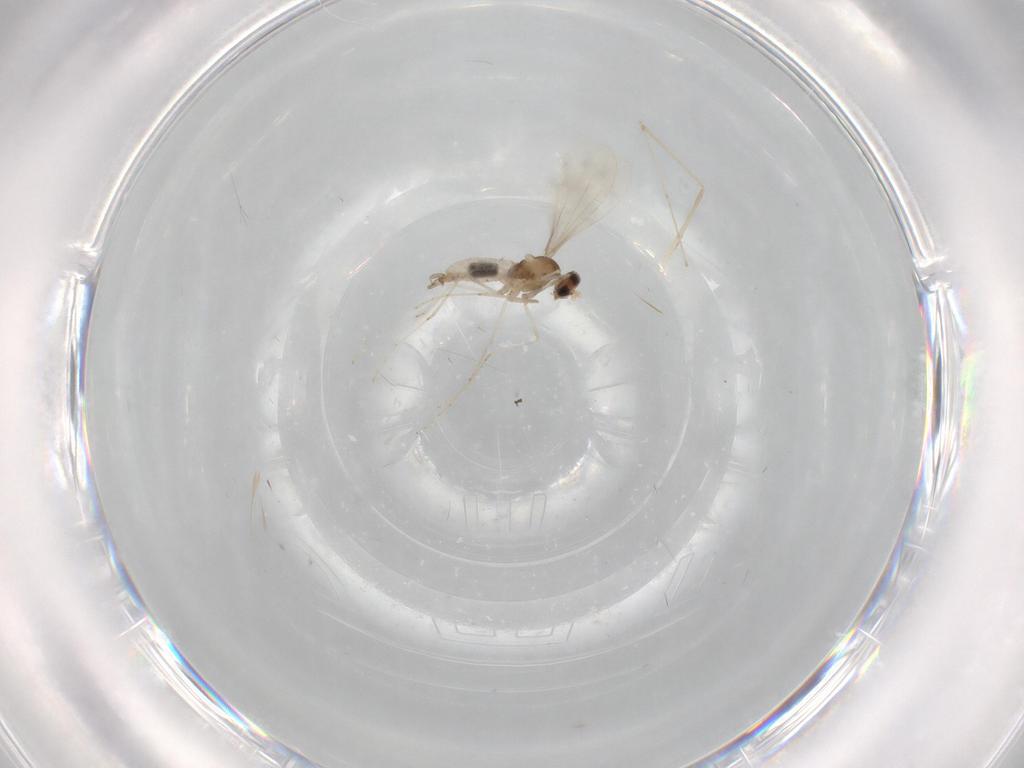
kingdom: Animalia
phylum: Arthropoda
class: Insecta
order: Diptera
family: Cecidomyiidae
